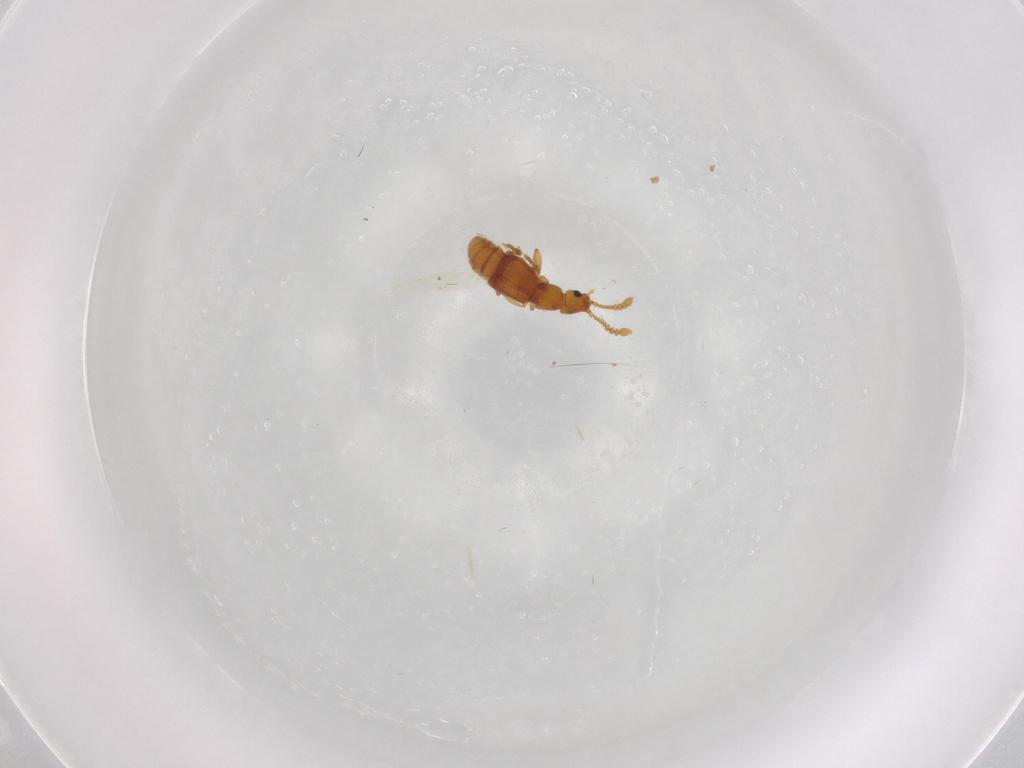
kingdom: Animalia
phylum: Arthropoda
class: Insecta
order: Coleoptera
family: Staphylinidae
